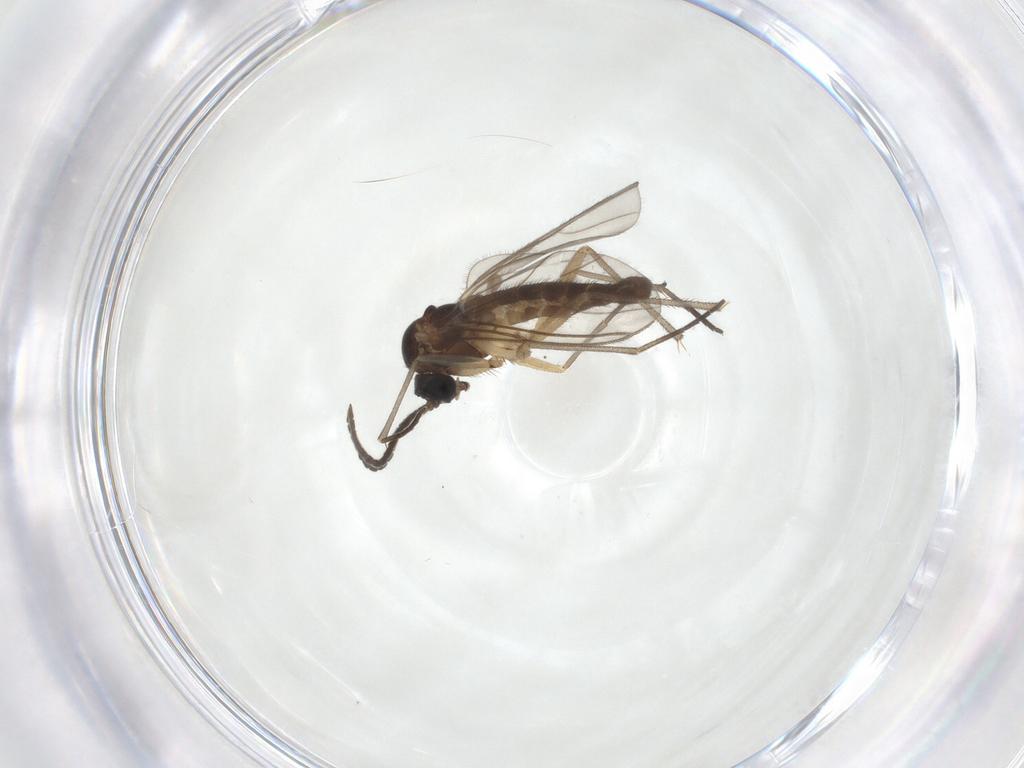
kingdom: Animalia
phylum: Arthropoda
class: Insecta
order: Diptera
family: Sciaridae
